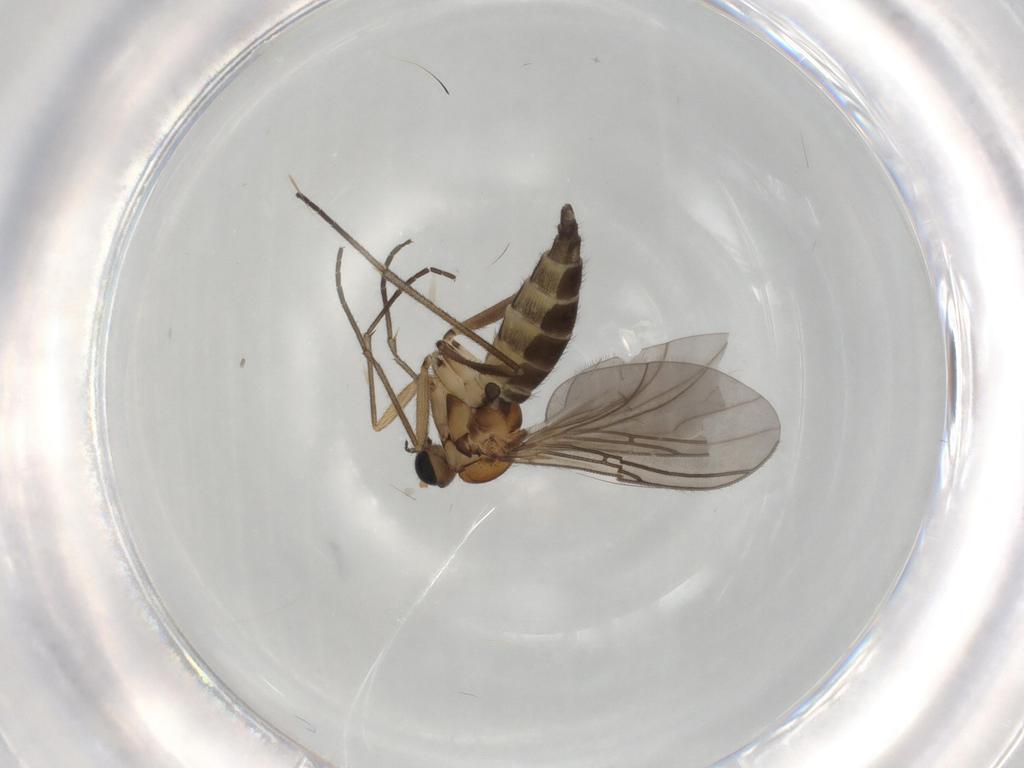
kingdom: Animalia
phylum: Arthropoda
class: Insecta
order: Diptera
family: Sciaridae
